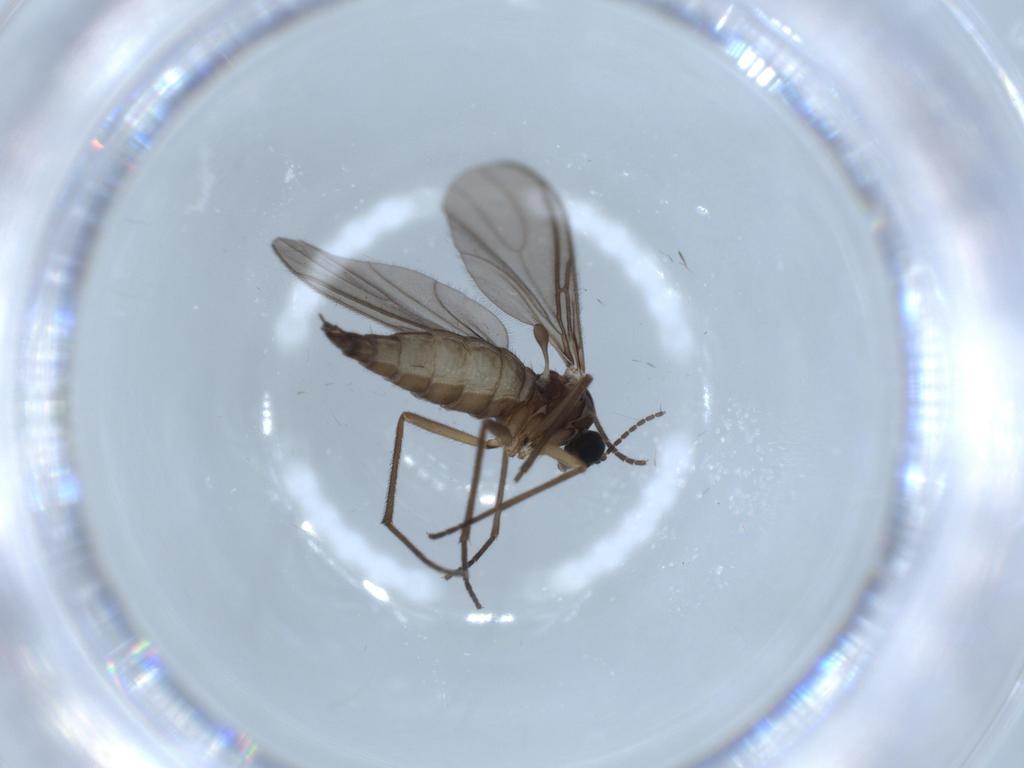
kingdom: Animalia
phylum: Arthropoda
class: Insecta
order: Diptera
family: Sciaridae
